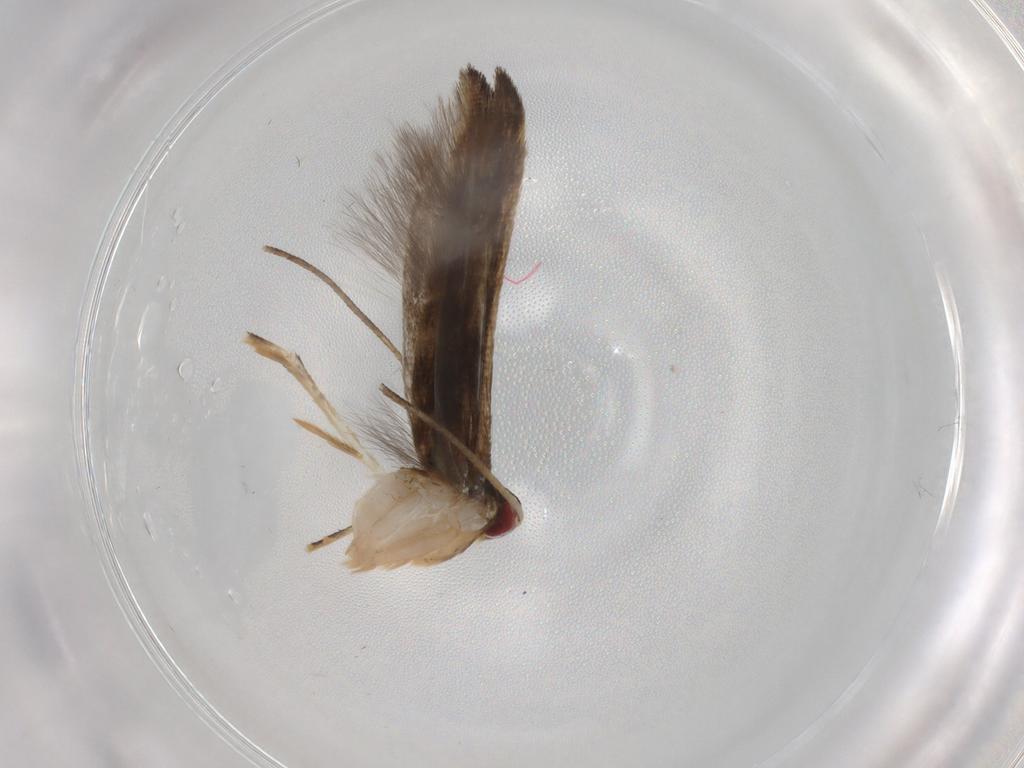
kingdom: Animalia
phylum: Arthropoda
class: Insecta
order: Lepidoptera
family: Momphidae
